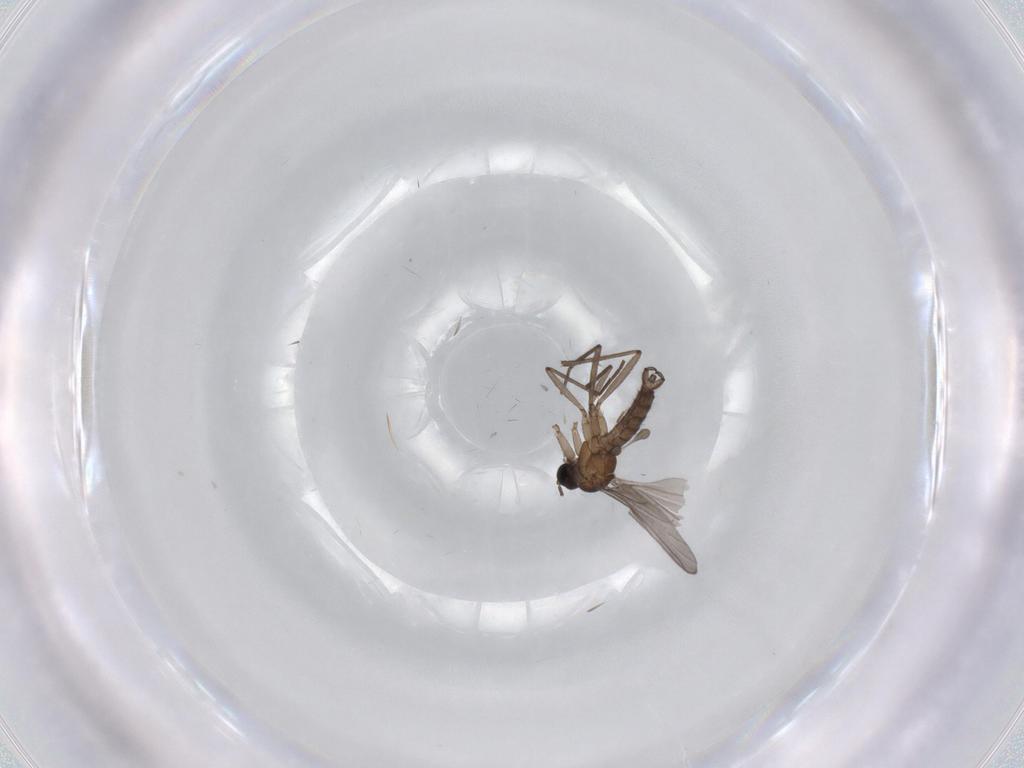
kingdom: Animalia
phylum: Arthropoda
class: Insecta
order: Diptera
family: Sciaridae
